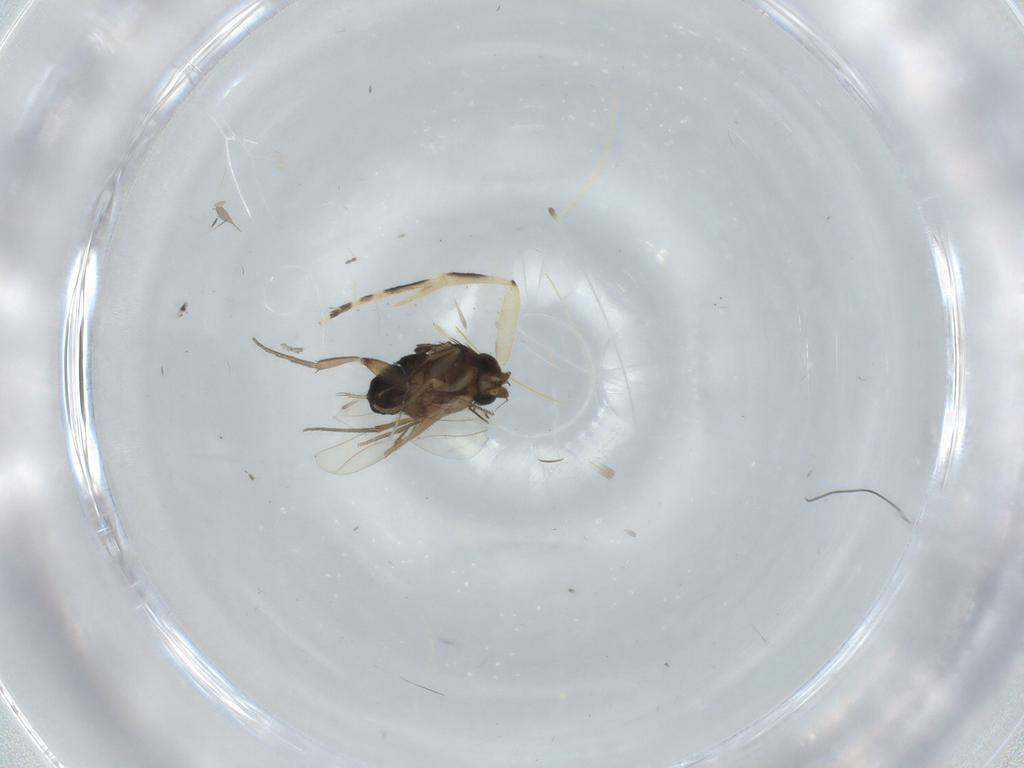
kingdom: Animalia
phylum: Arthropoda
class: Insecta
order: Diptera
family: Phoridae
